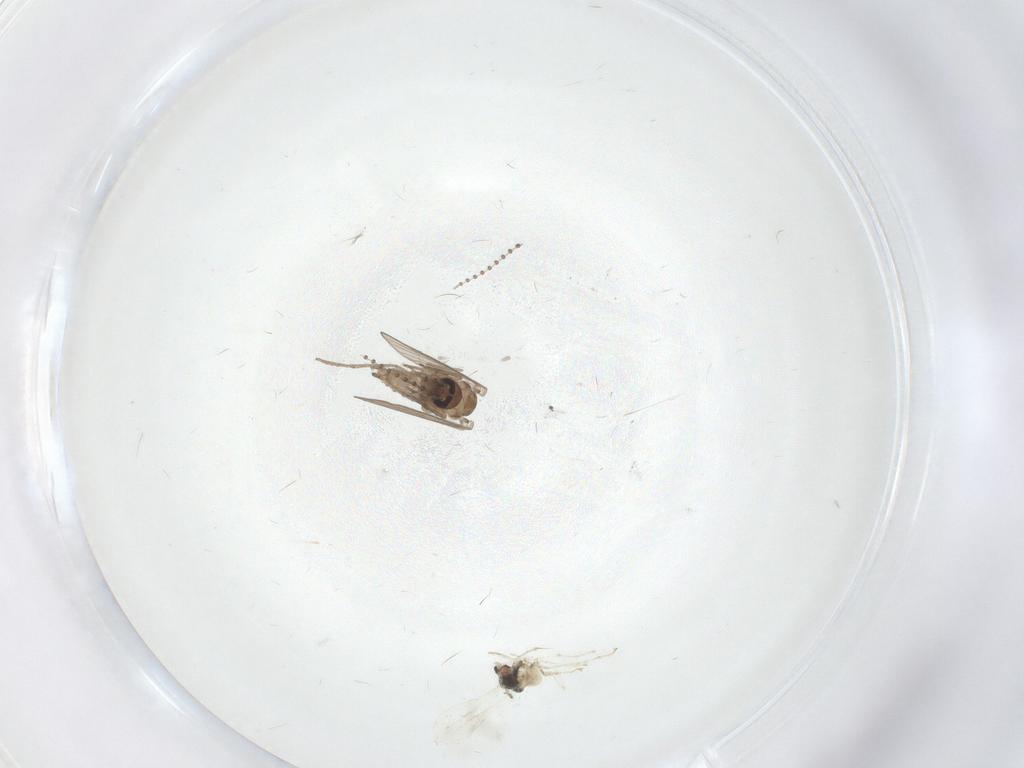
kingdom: Animalia
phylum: Arthropoda
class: Insecta
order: Diptera
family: Psychodidae
